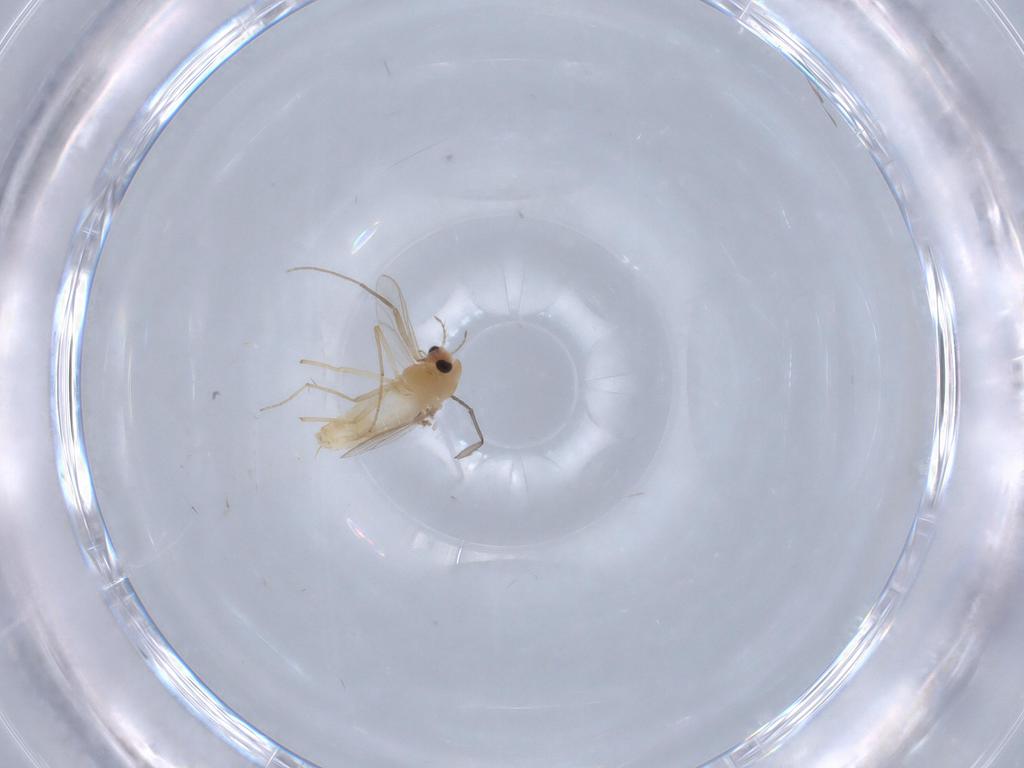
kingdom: Animalia
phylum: Arthropoda
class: Insecta
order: Diptera
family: Chironomidae
